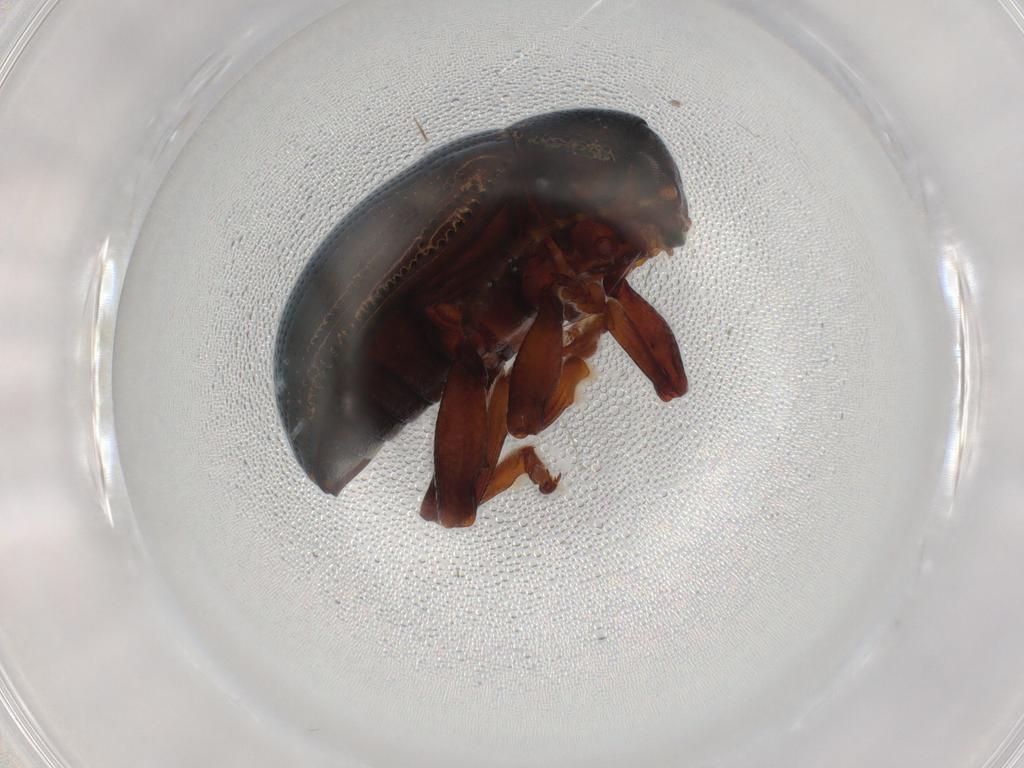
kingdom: Animalia
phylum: Arthropoda
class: Insecta
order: Coleoptera
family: Chrysomelidae
